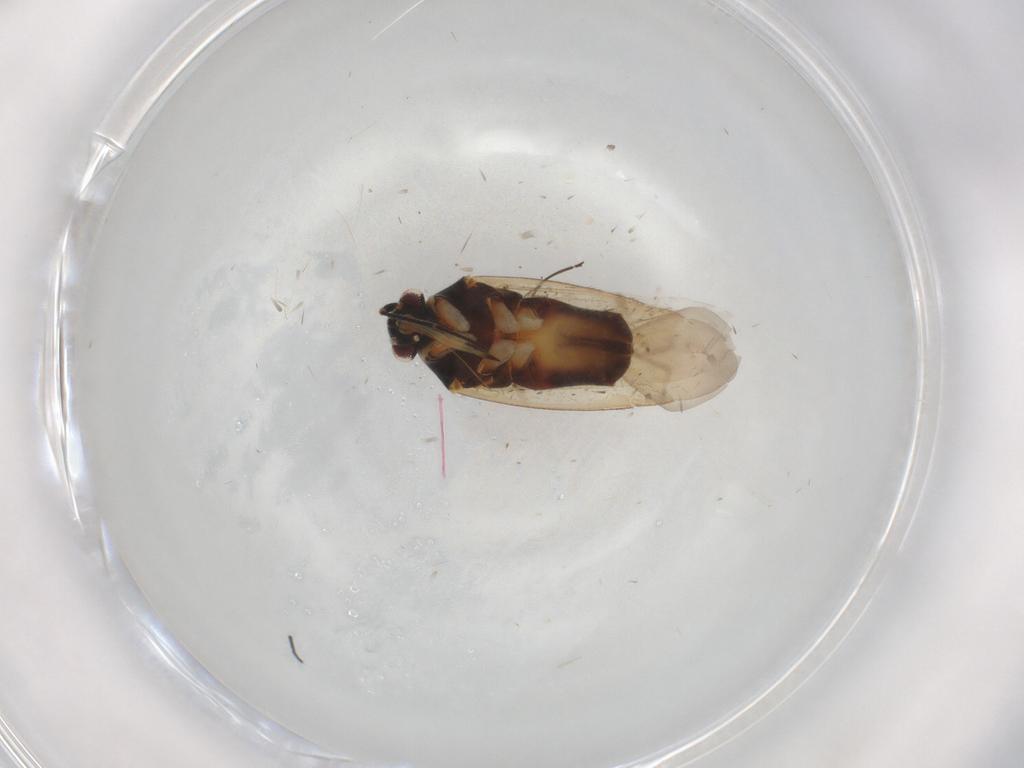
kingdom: Animalia
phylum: Arthropoda
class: Insecta
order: Hemiptera
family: Miridae
